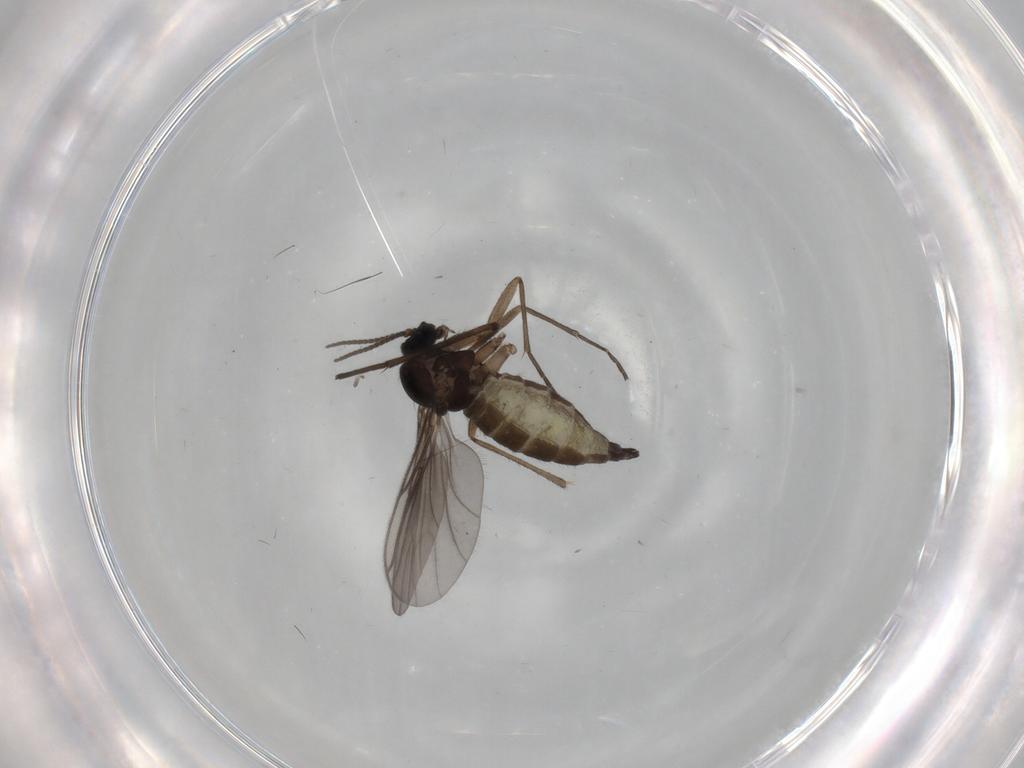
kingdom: Animalia
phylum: Arthropoda
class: Insecta
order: Diptera
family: Sciaridae
